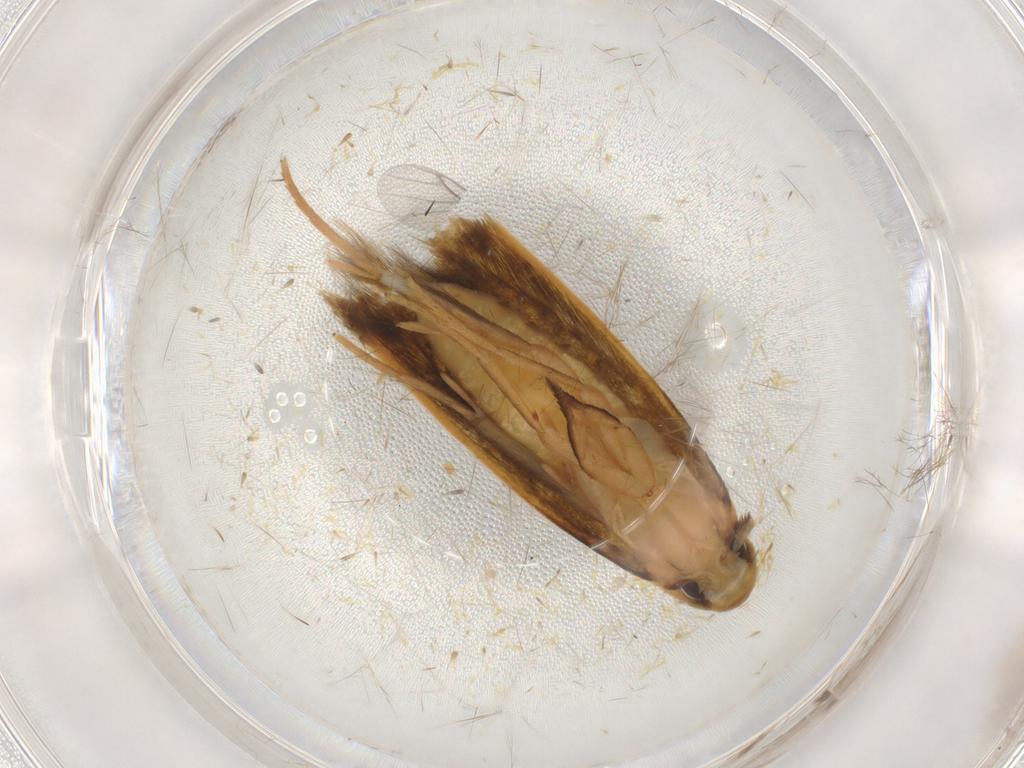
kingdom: Animalia
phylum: Arthropoda
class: Insecta
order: Lepidoptera
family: Tineidae
